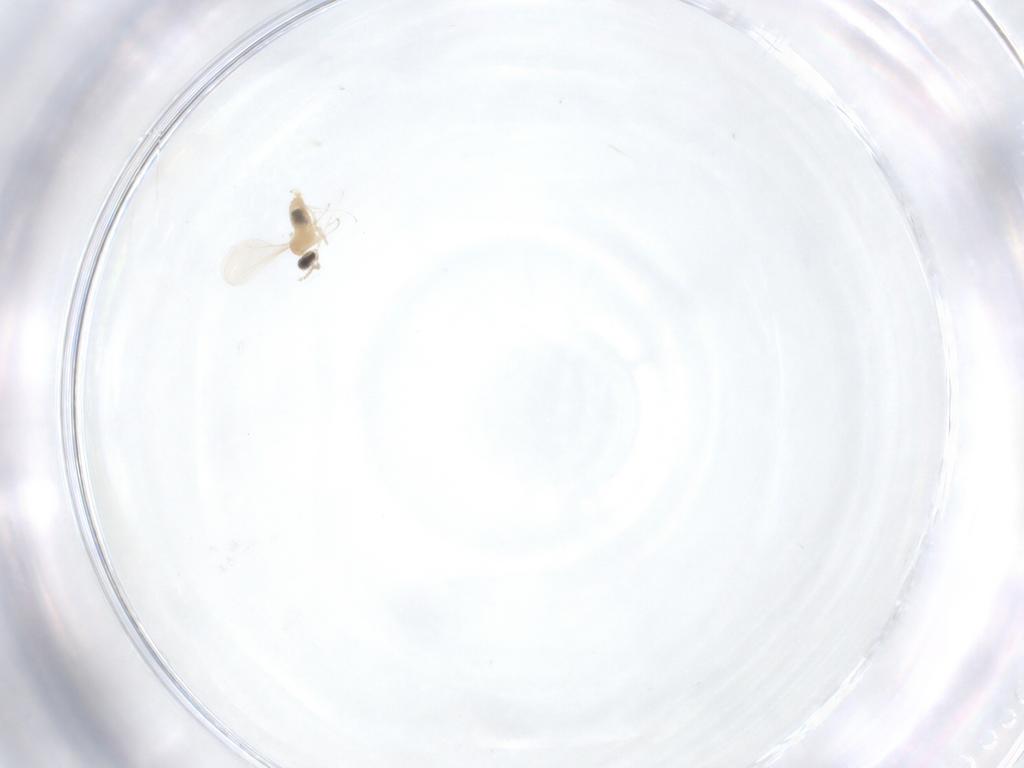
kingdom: Animalia
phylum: Arthropoda
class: Insecta
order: Diptera
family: Cecidomyiidae
